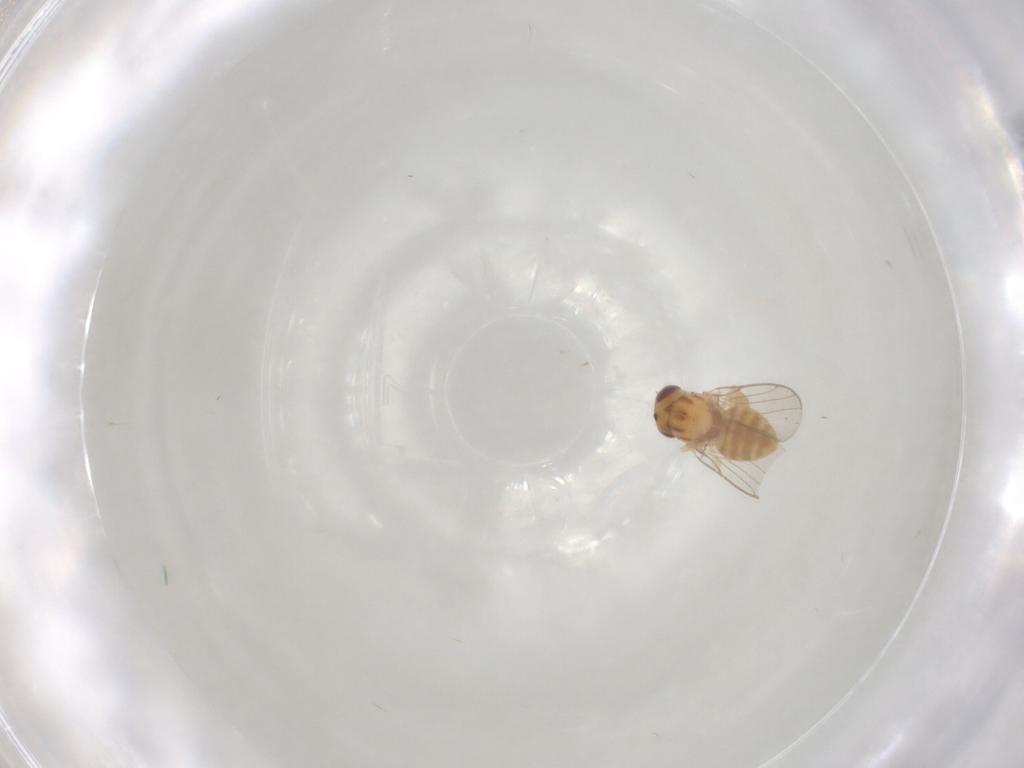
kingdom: Animalia
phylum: Arthropoda
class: Insecta
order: Diptera
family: Chloropidae
